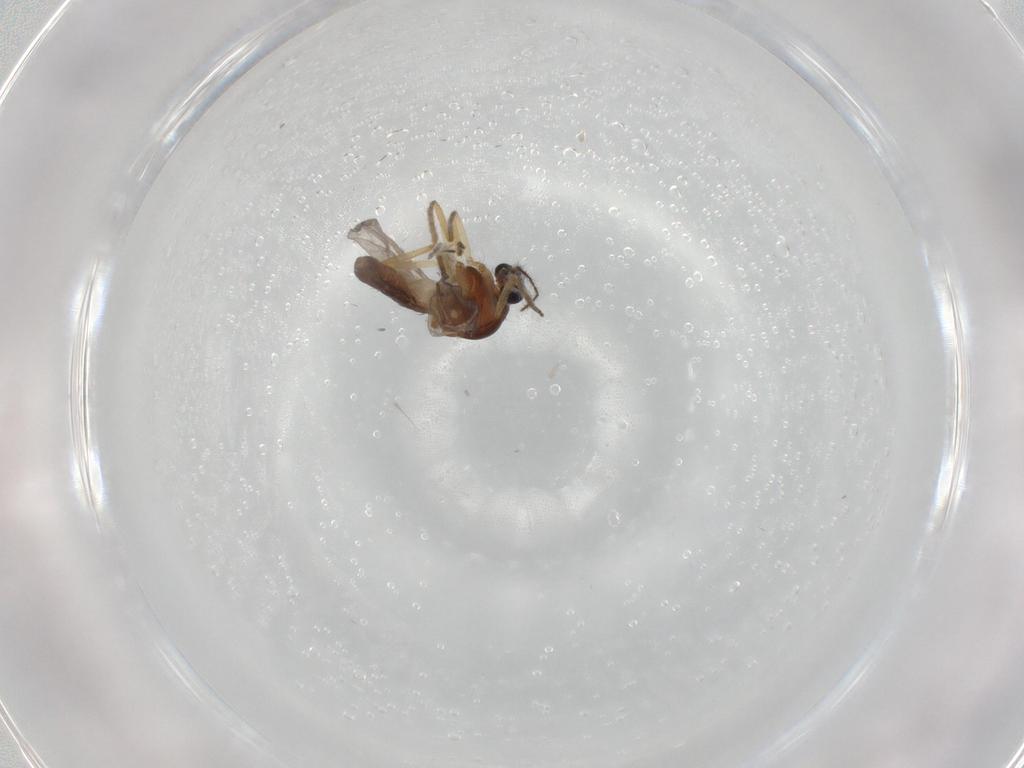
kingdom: Animalia
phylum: Arthropoda
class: Insecta
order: Diptera
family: Ceratopogonidae
